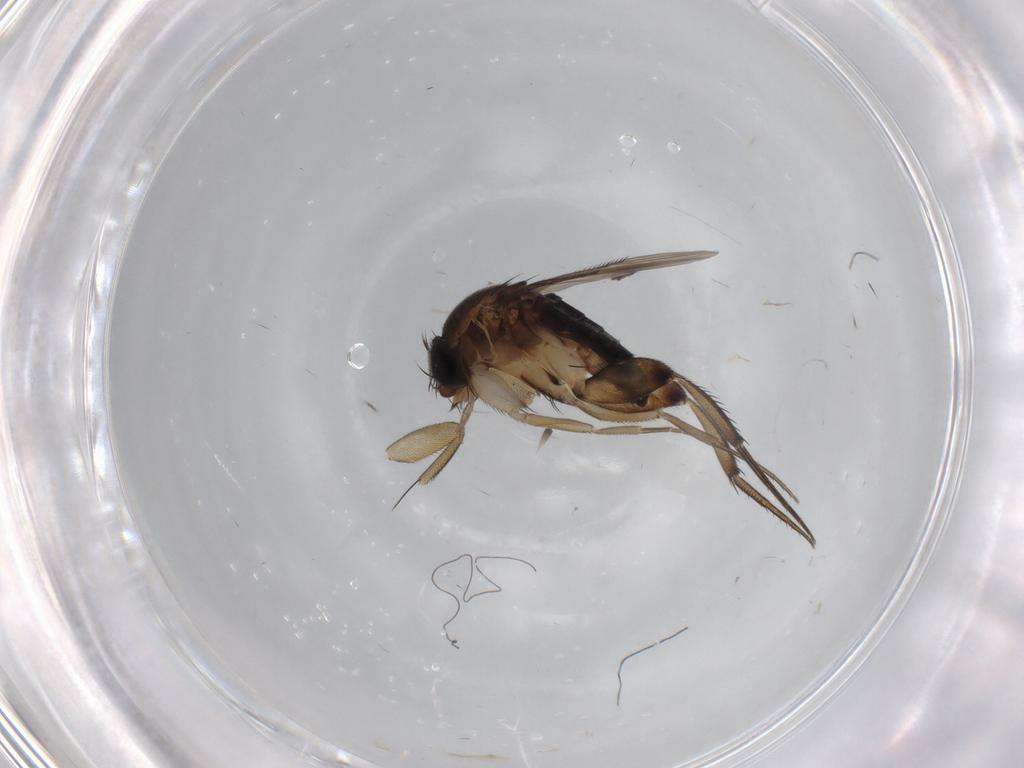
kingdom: Animalia
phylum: Arthropoda
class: Insecta
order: Diptera
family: Phoridae
